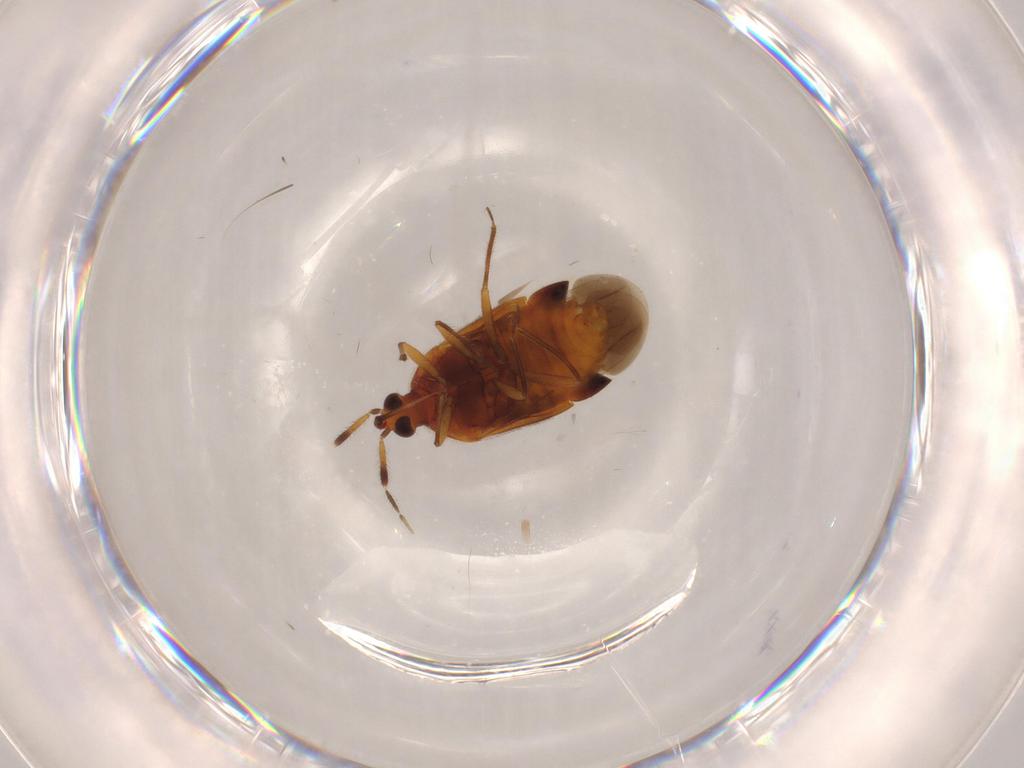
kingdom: Animalia
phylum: Arthropoda
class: Insecta
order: Hemiptera
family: Anthocoridae
